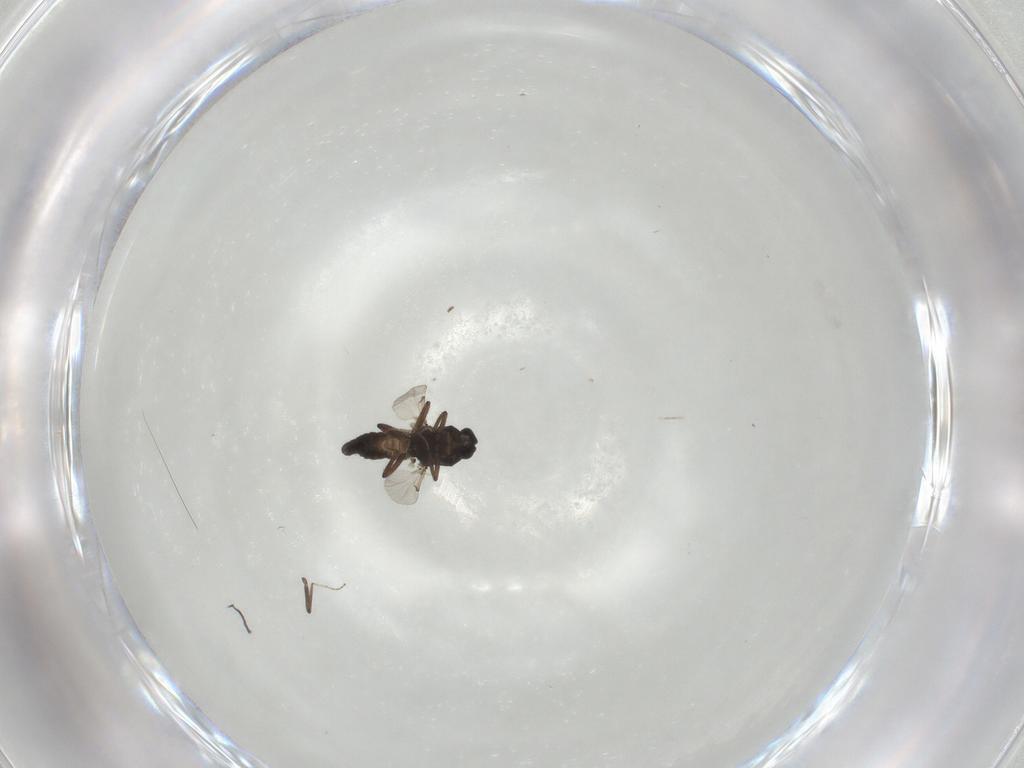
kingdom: Animalia
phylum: Arthropoda
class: Insecta
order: Diptera
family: Ceratopogonidae
